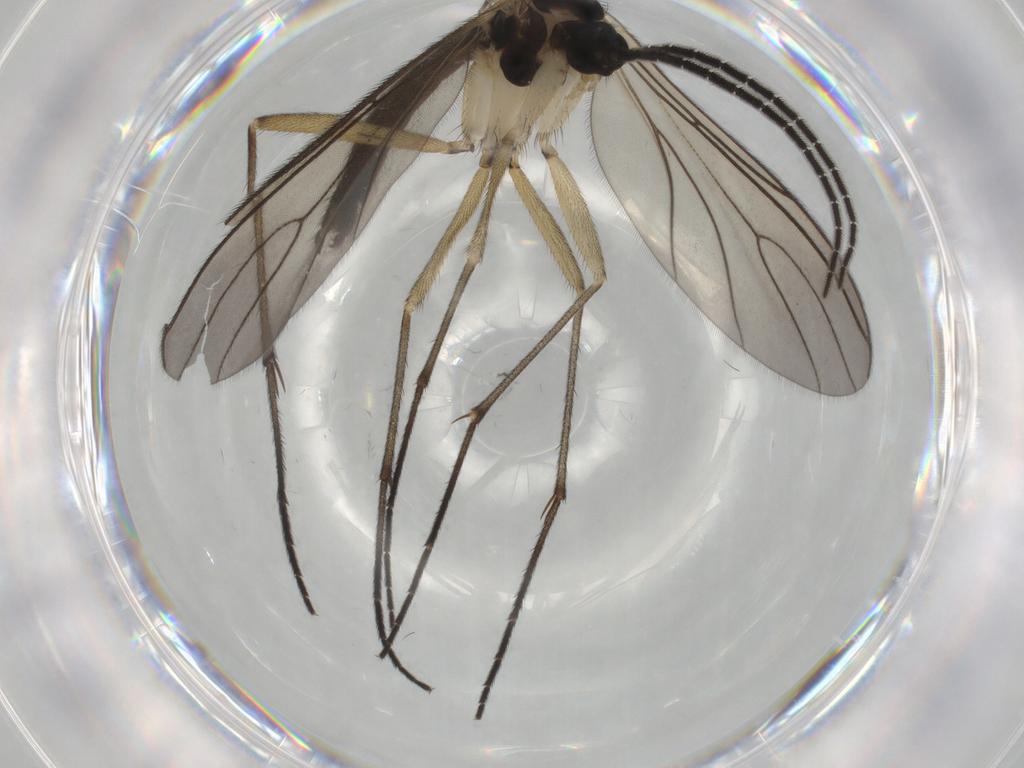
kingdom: Animalia
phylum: Arthropoda
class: Insecta
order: Diptera
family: Sciaridae
